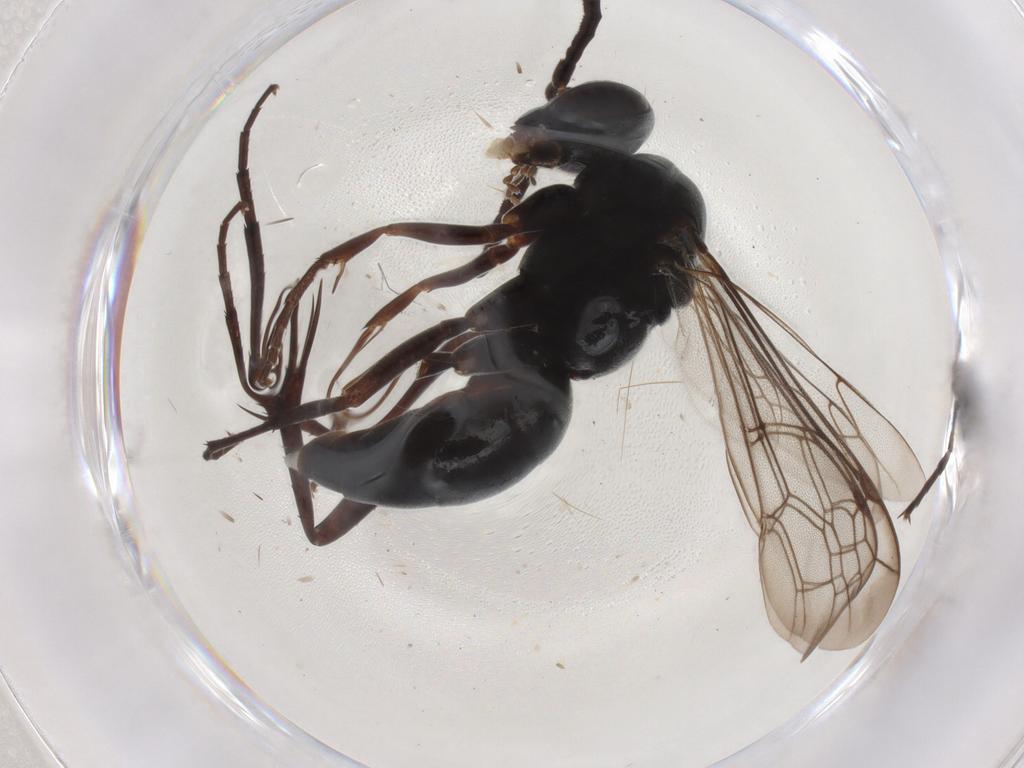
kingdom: Animalia
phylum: Arthropoda
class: Insecta
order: Hymenoptera
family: Pompilidae
